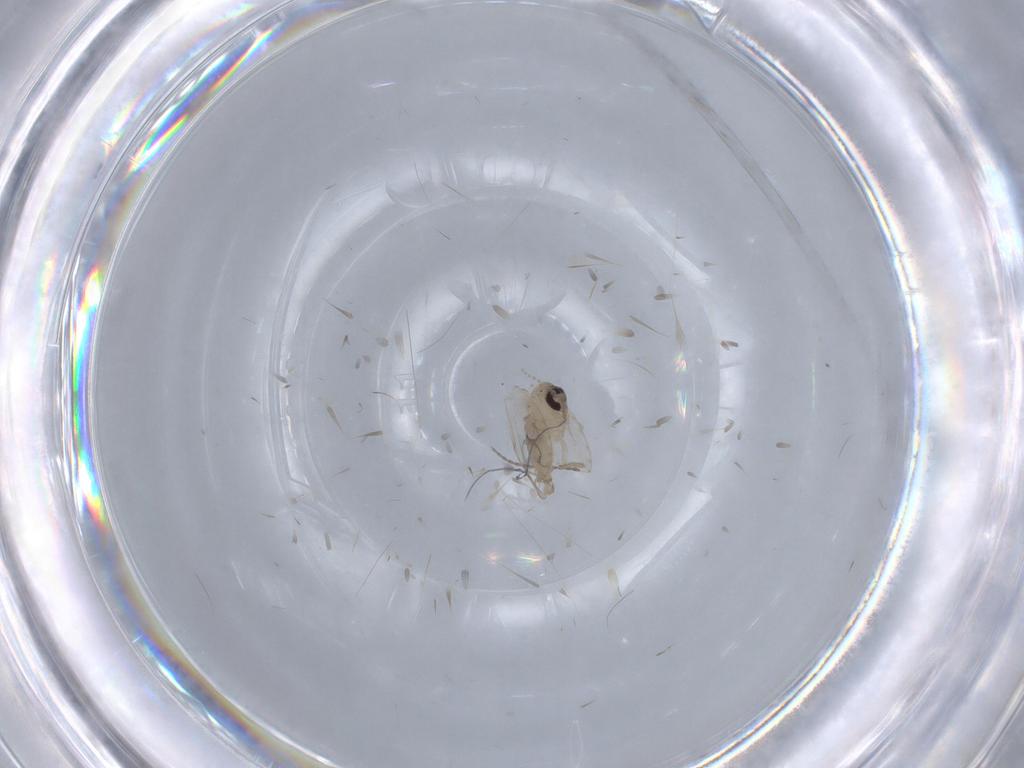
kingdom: Animalia
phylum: Arthropoda
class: Insecta
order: Diptera
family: Psychodidae
